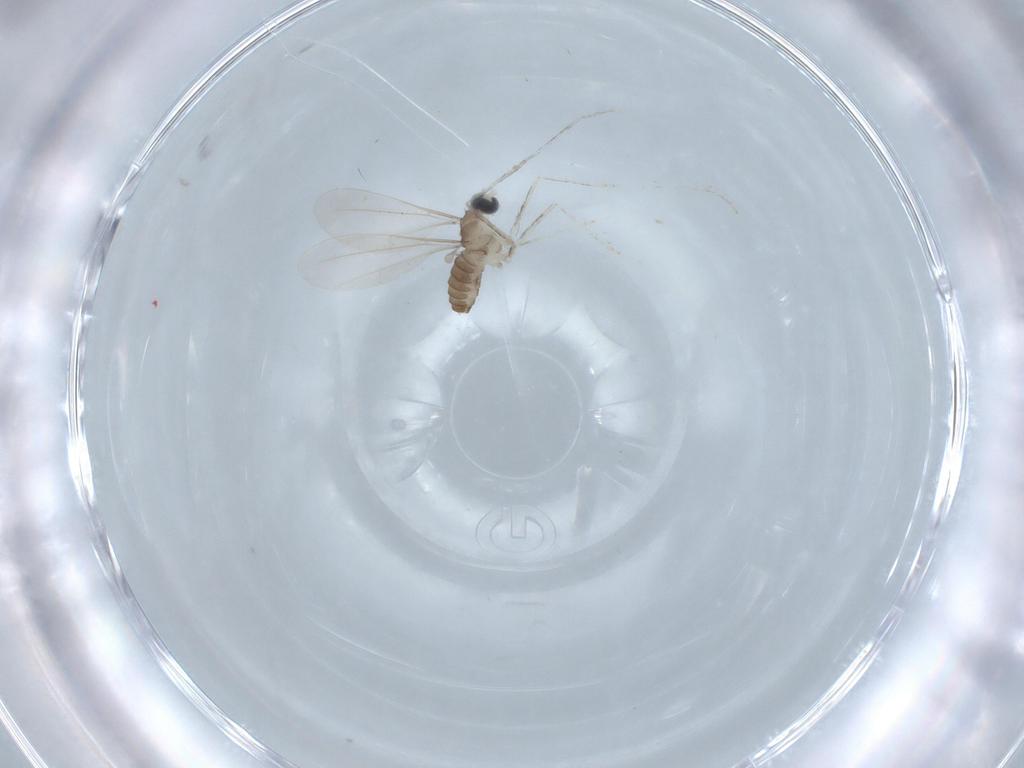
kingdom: Animalia
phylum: Arthropoda
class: Insecta
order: Diptera
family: Cecidomyiidae
